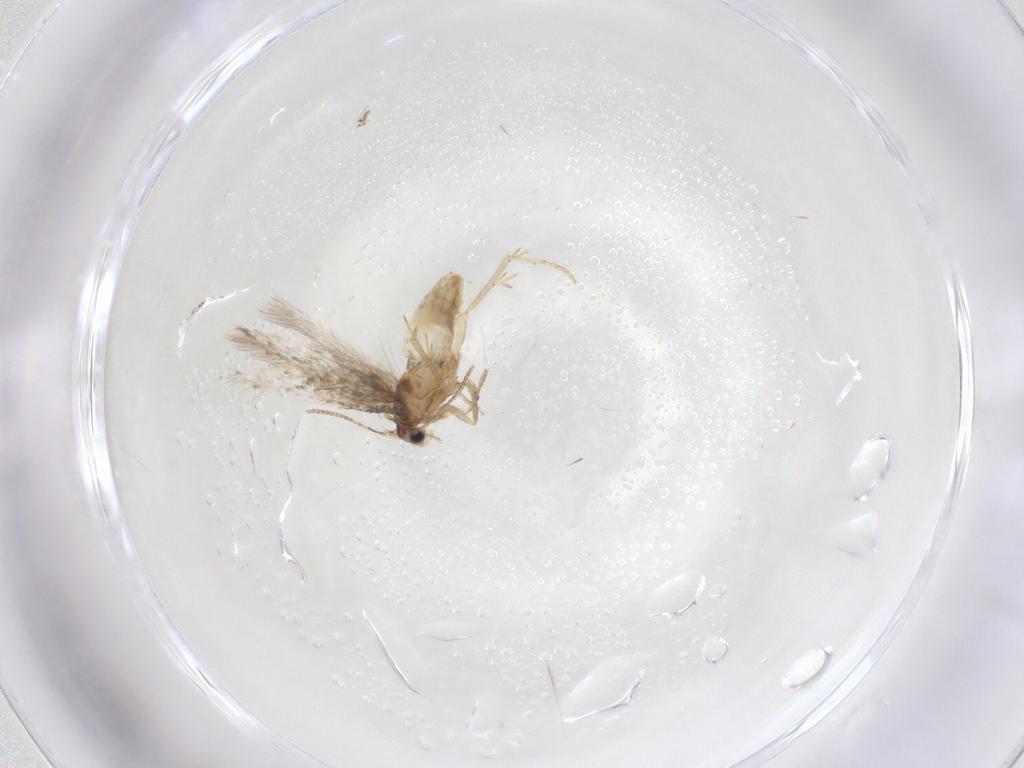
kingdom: Animalia
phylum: Arthropoda
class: Insecta
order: Lepidoptera
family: Nepticulidae
